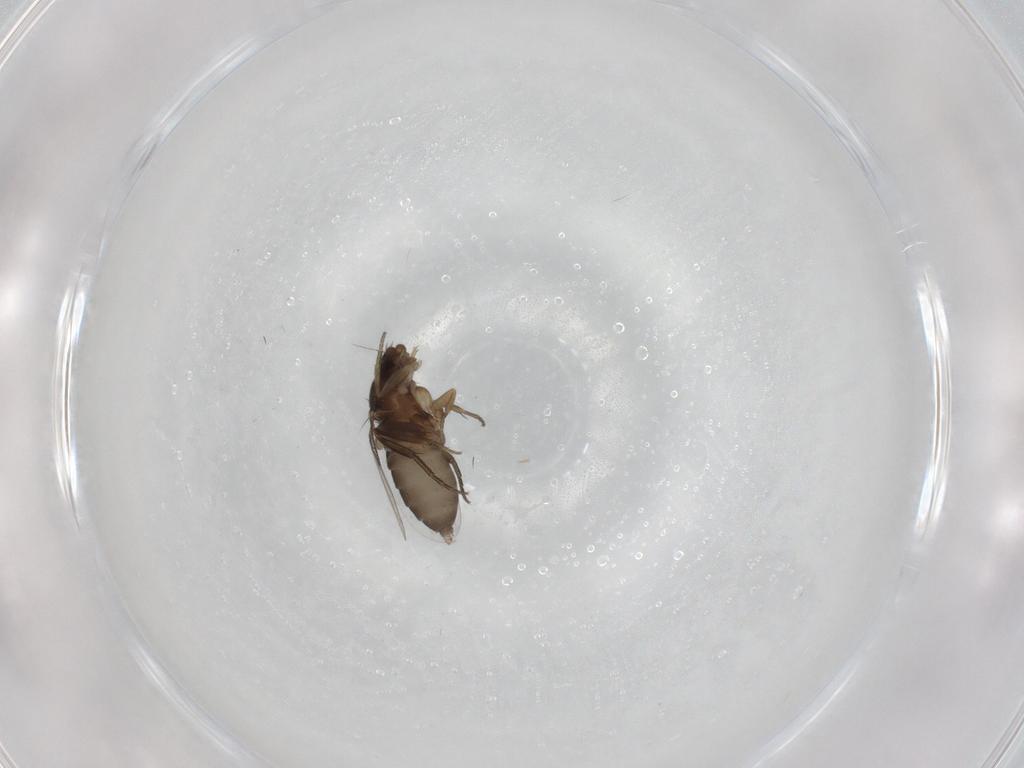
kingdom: Animalia
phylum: Arthropoda
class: Insecta
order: Diptera
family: Phoridae
